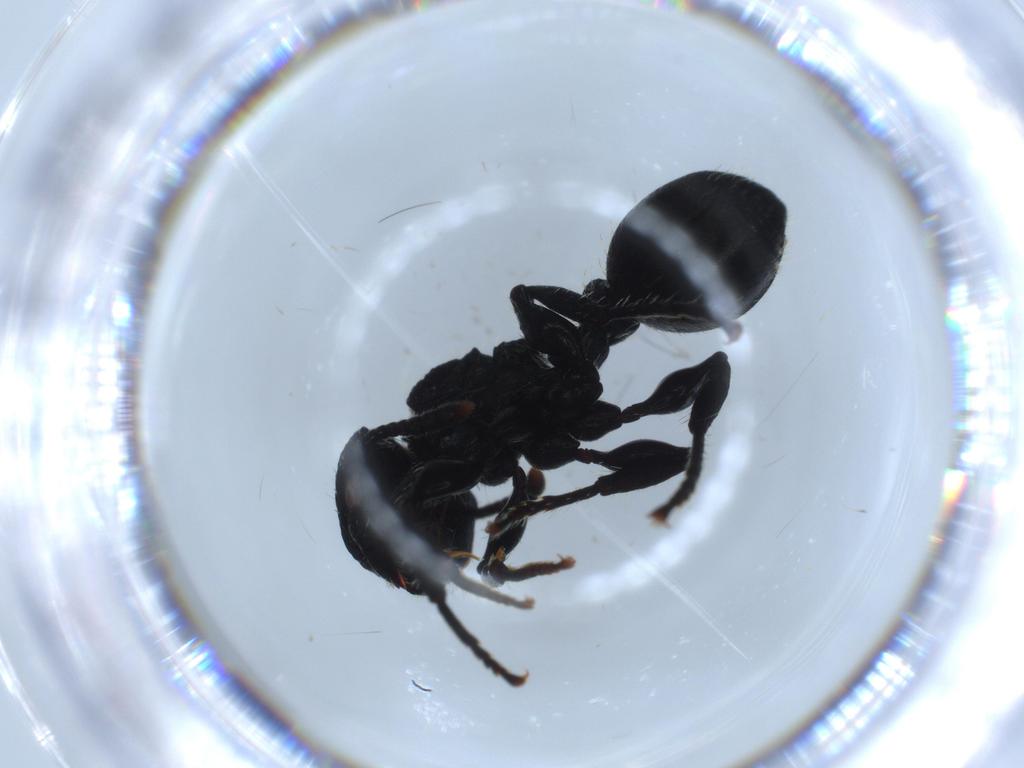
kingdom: Animalia
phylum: Arthropoda
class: Insecta
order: Hymenoptera
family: Formicidae
